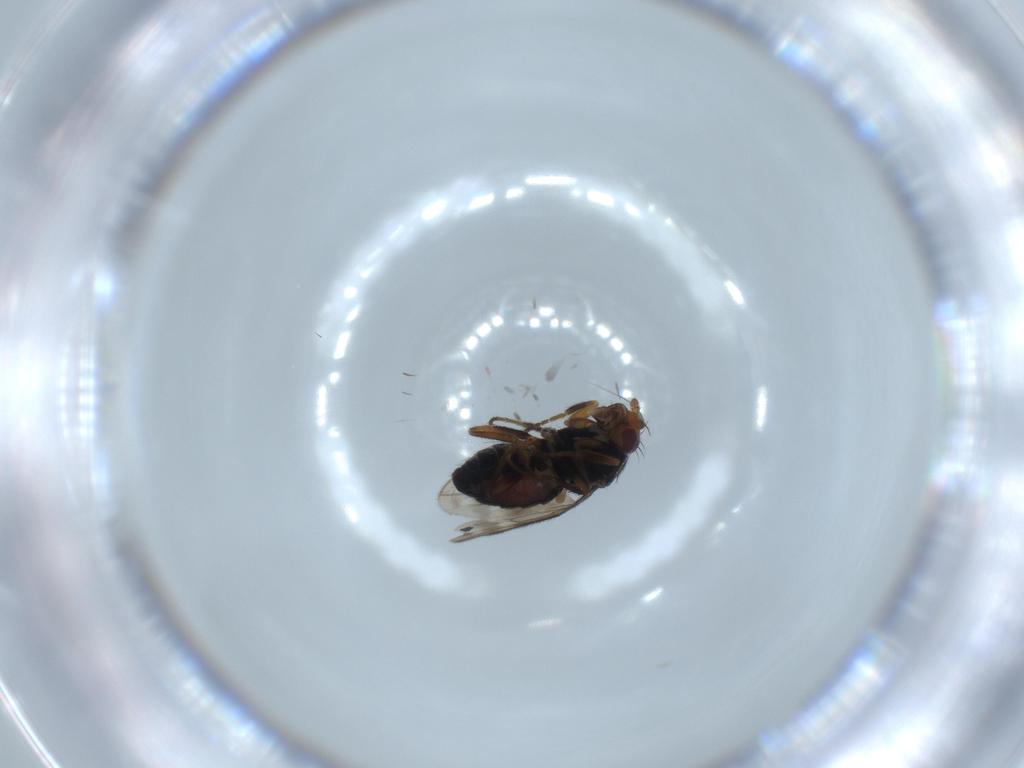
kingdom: Animalia
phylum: Arthropoda
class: Insecta
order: Diptera
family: Sphaeroceridae
